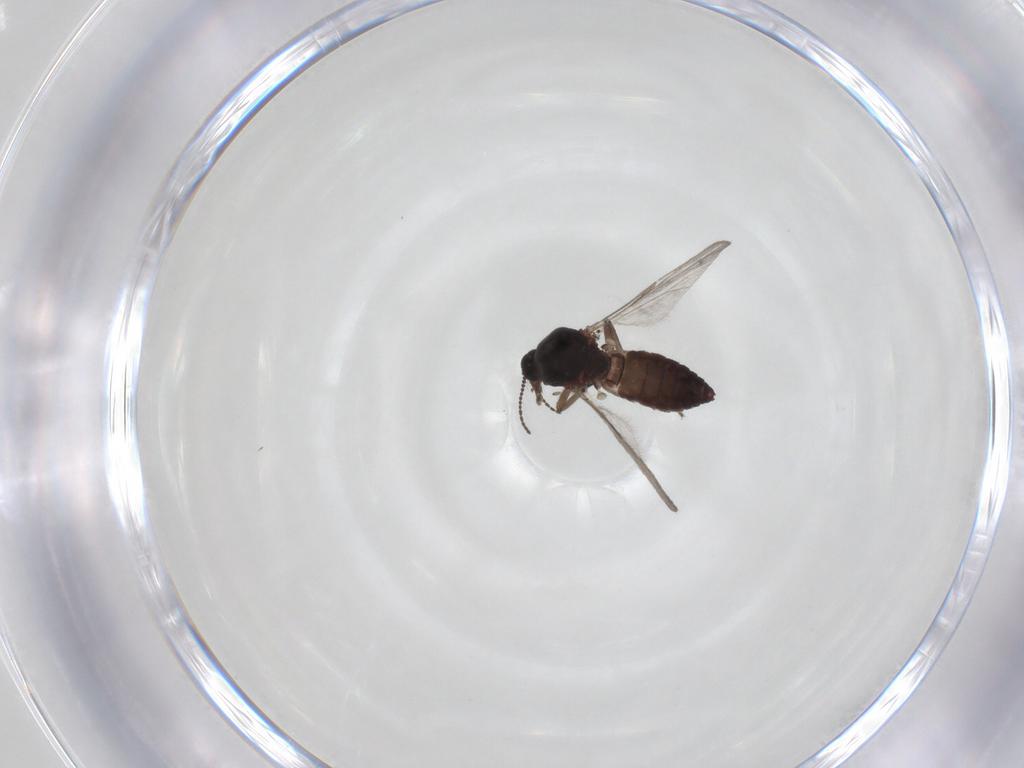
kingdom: Animalia
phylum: Arthropoda
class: Insecta
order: Diptera
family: Ceratopogonidae
